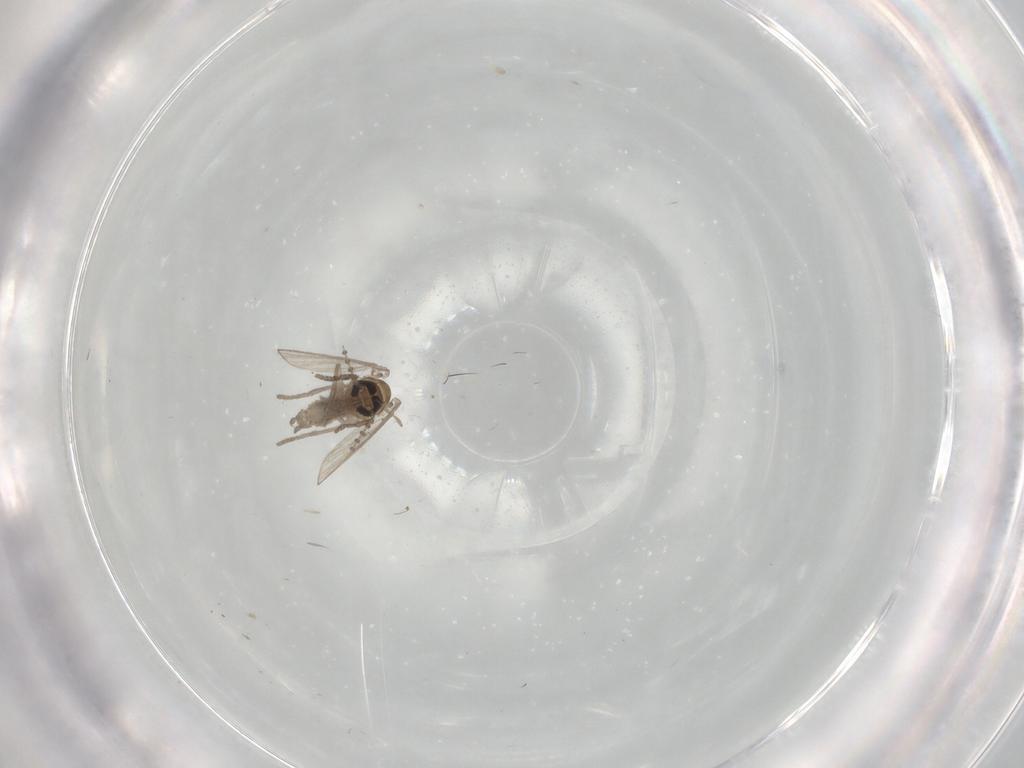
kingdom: Animalia
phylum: Arthropoda
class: Insecta
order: Diptera
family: Psychodidae
